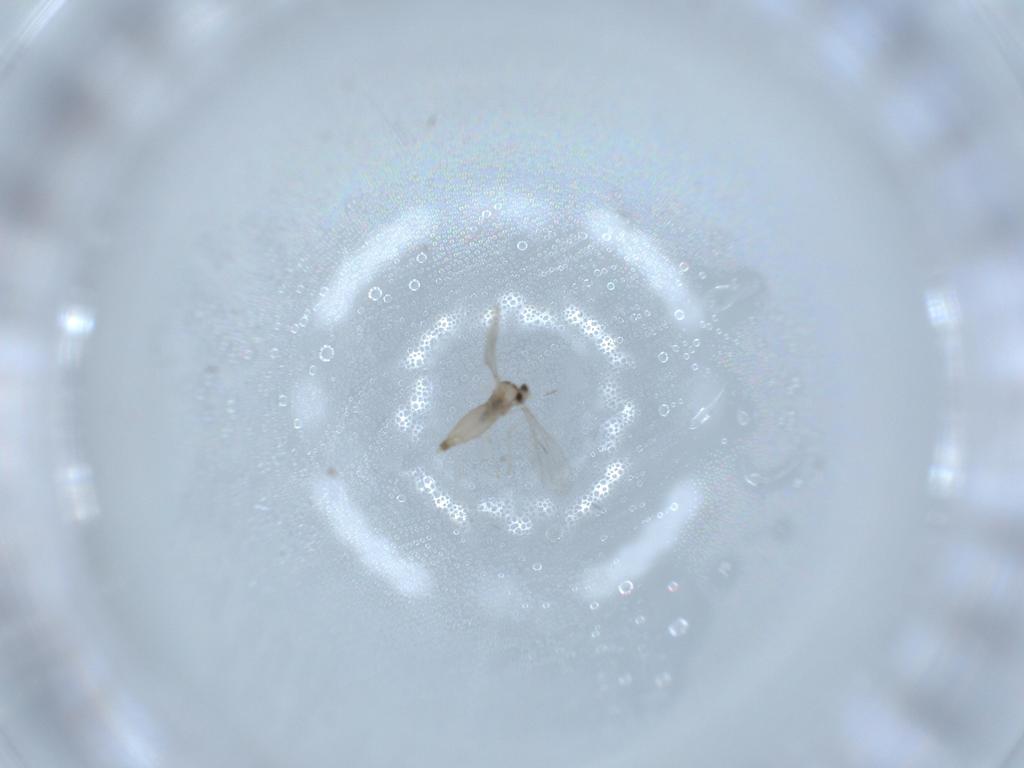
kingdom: Animalia
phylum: Arthropoda
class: Insecta
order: Diptera
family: Cecidomyiidae
